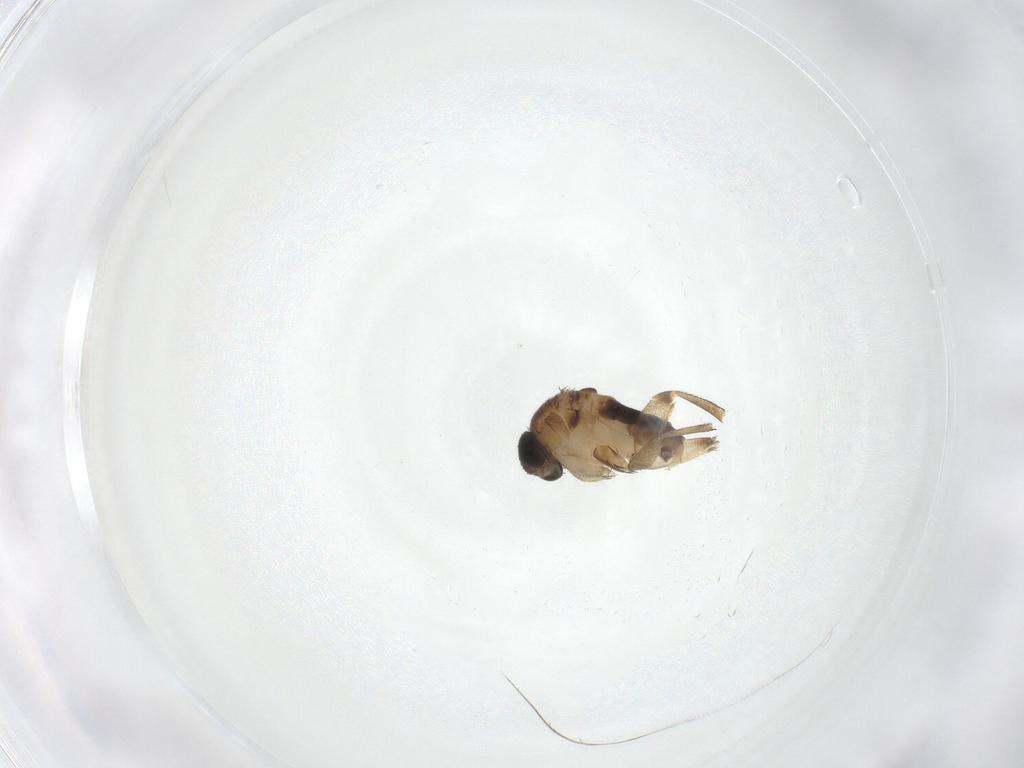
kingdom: Animalia
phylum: Arthropoda
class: Insecta
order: Diptera
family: Phoridae
